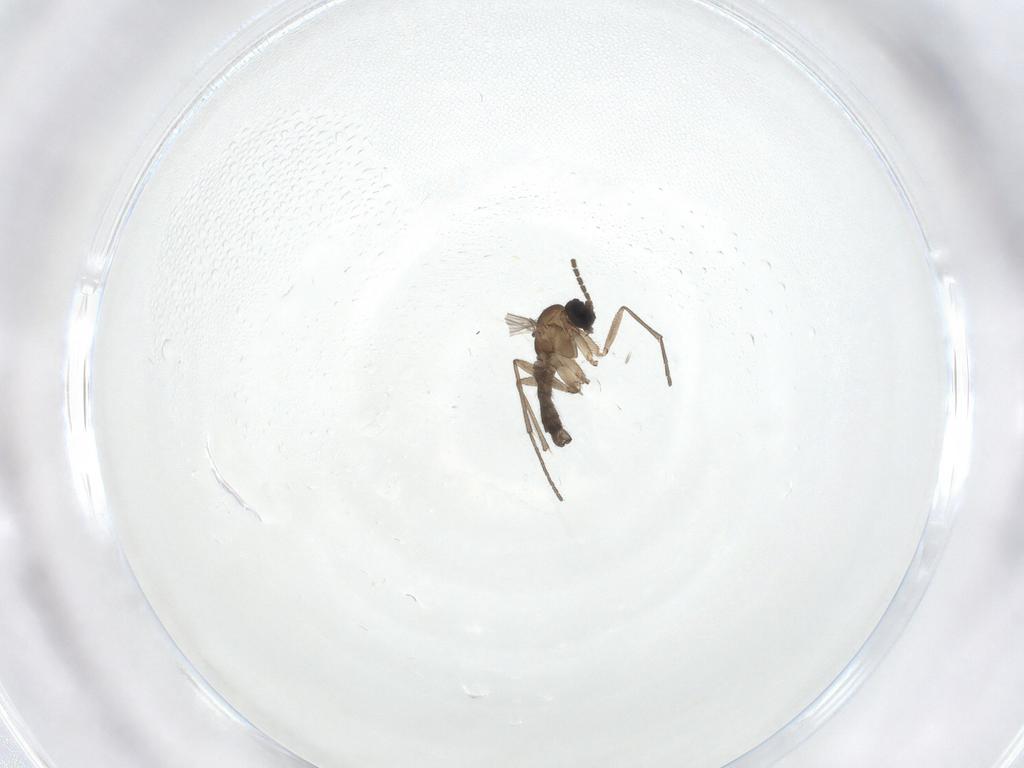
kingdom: Animalia
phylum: Arthropoda
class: Insecta
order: Diptera
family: Sciaridae
